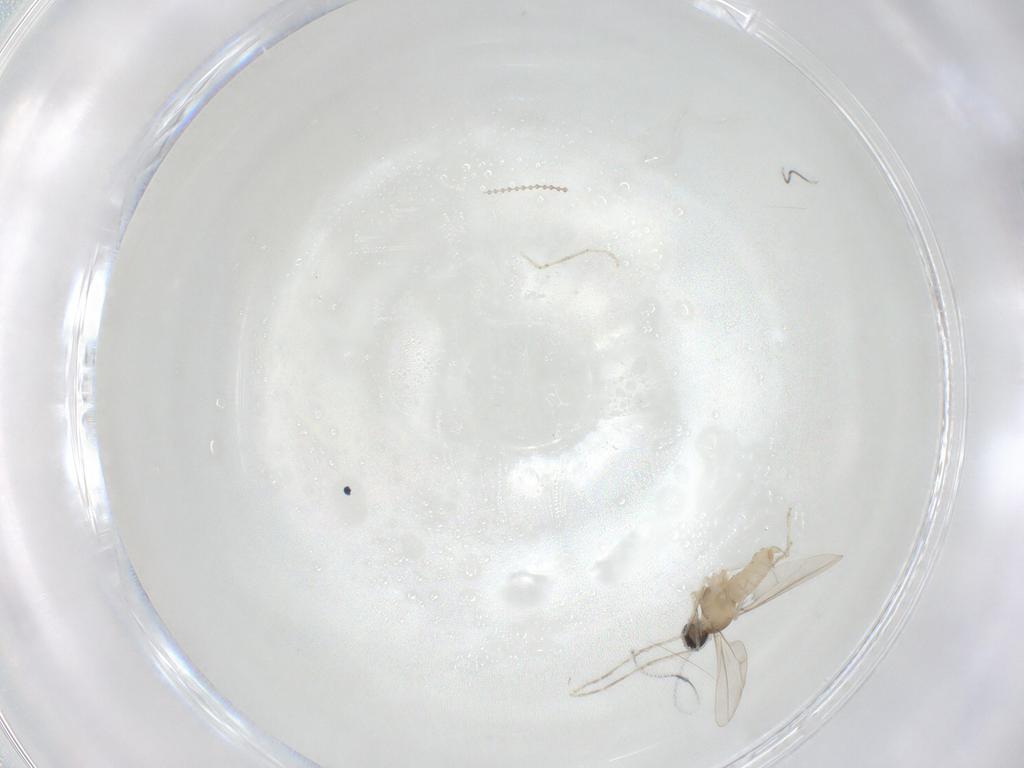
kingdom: Animalia
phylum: Arthropoda
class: Insecta
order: Diptera
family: Cecidomyiidae
